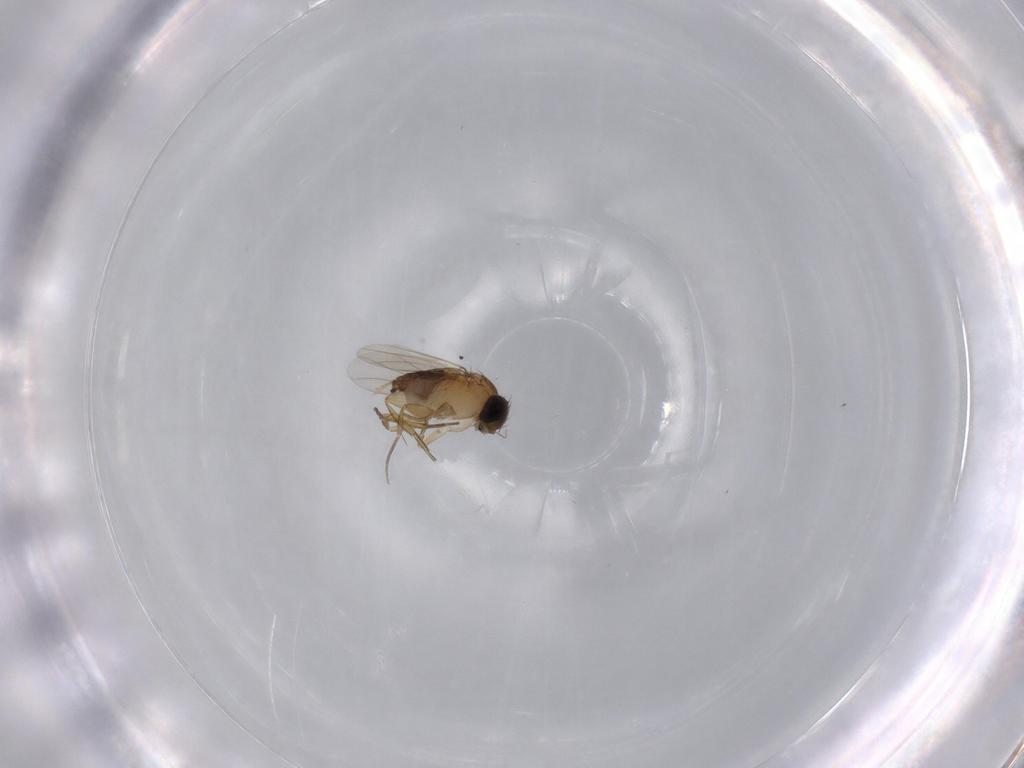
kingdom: Animalia
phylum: Arthropoda
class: Insecta
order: Diptera
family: Phoridae
